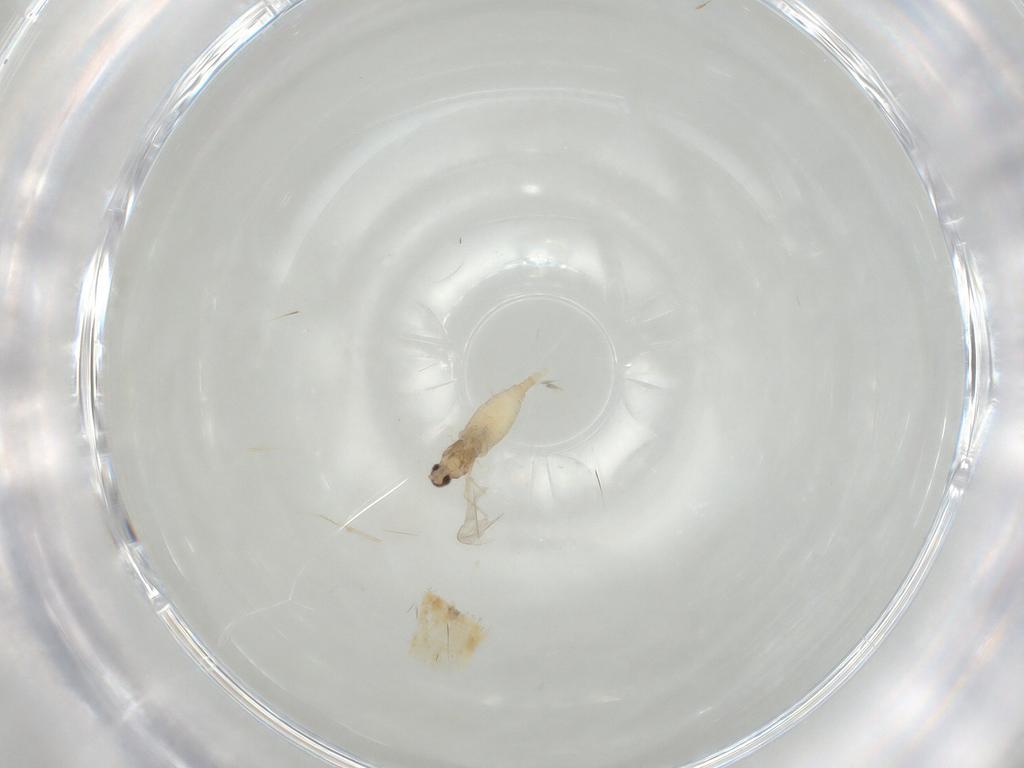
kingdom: Animalia
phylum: Arthropoda
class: Insecta
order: Diptera
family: Cecidomyiidae
